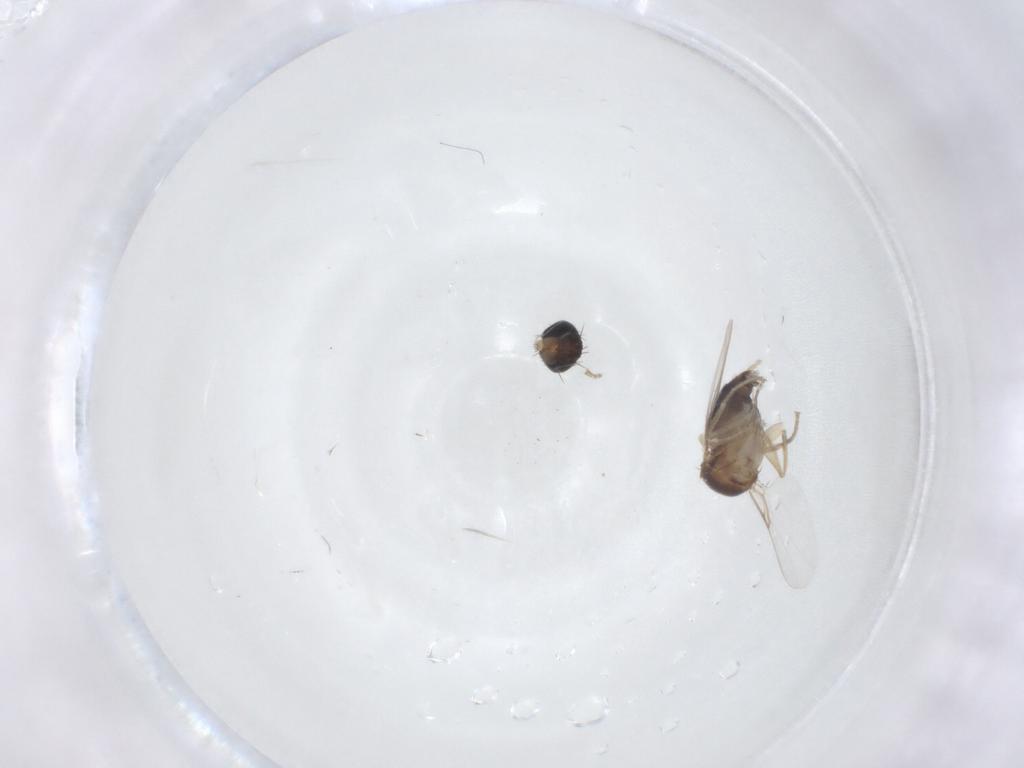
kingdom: Animalia
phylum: Arthropoda
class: Insecta
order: Diptera
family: Phoridae
